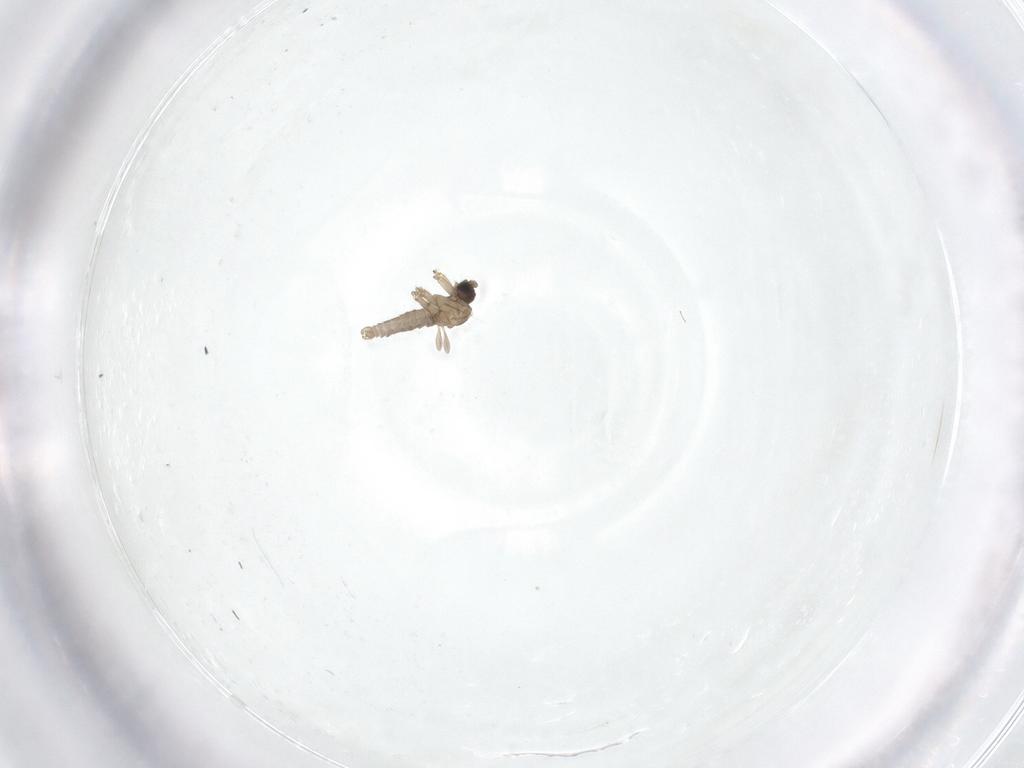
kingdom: Animalia
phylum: Arthropoda
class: Insecta
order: Diptera
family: Sciaridae
